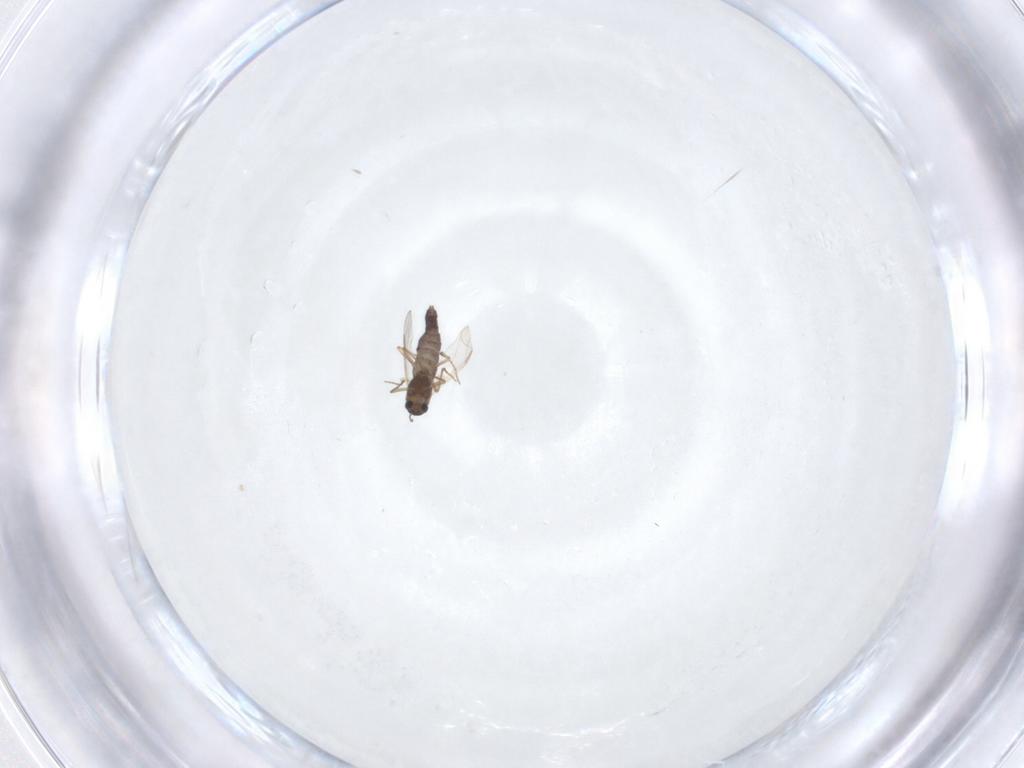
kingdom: Animalia
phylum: Arthropoda
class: Insecta
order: Diptera
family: Chironomidae
